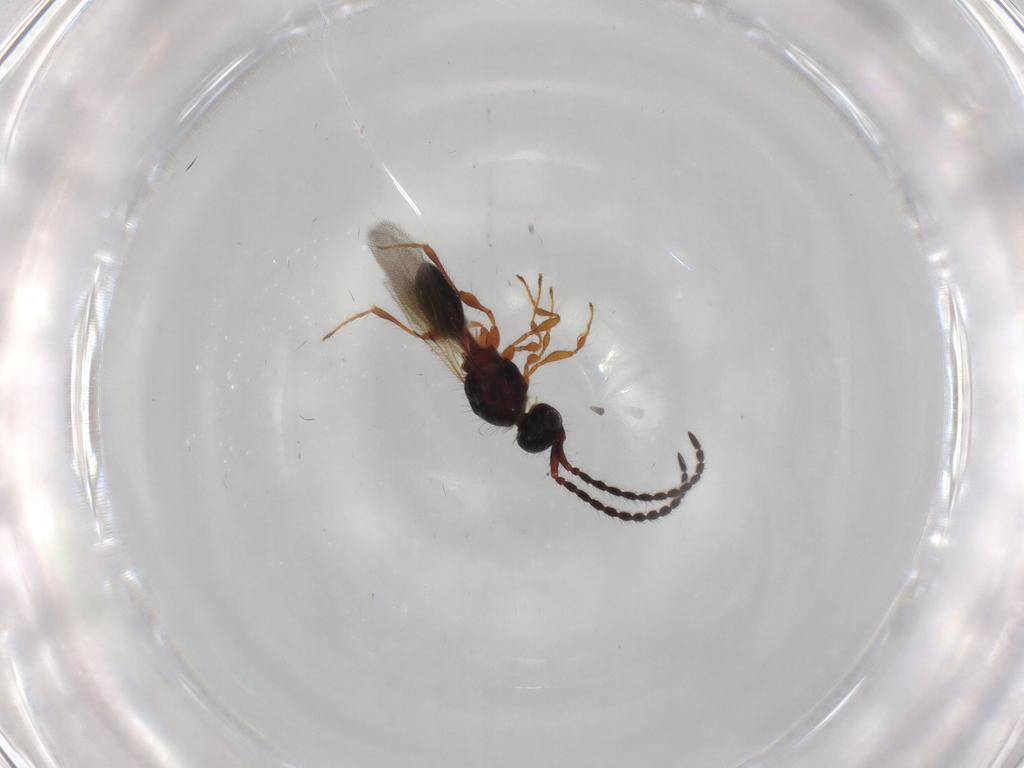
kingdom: Animalia
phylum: Arthropoda
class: Insecta
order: Hymenoptera
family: Diapriidae
